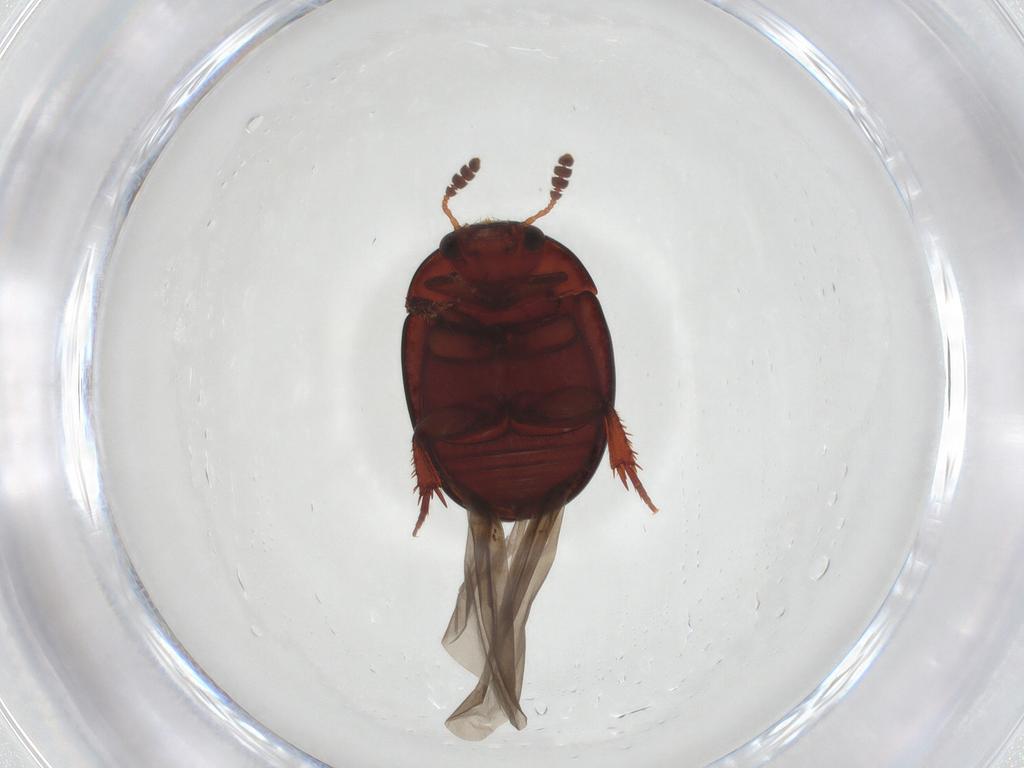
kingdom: Animalia
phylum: Arthropoda
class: Insecta
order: Coleoptera
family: Leiodidae
